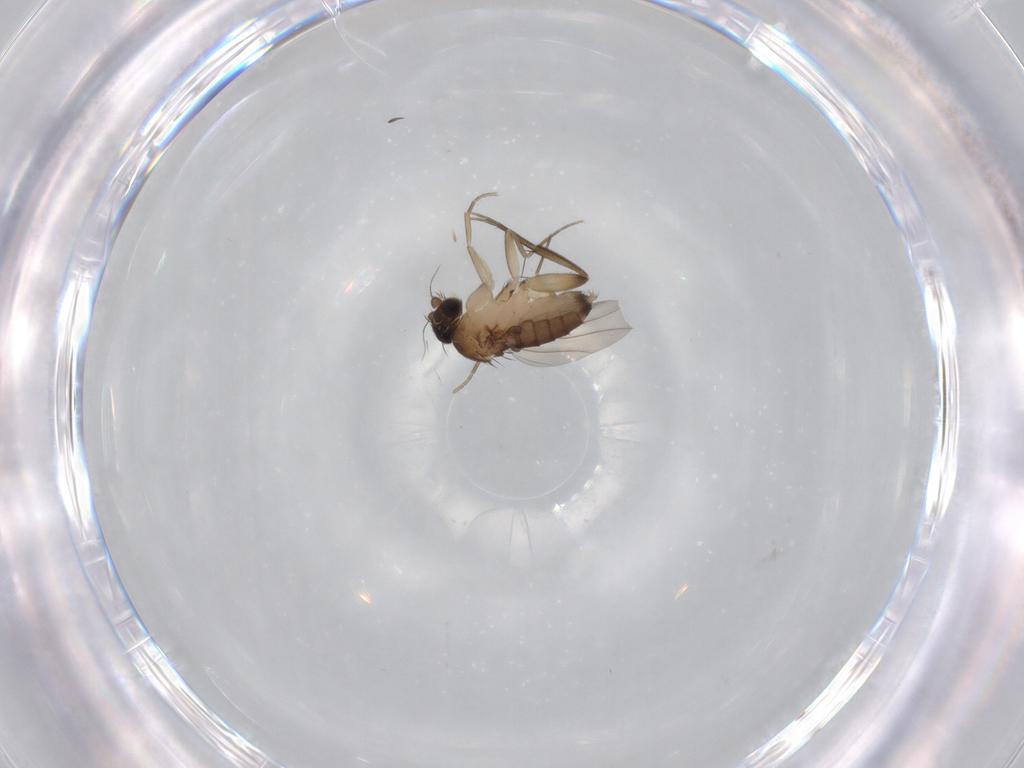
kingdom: Animalia
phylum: Arthropoda
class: Insecta
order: Diptera
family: Phoridae
